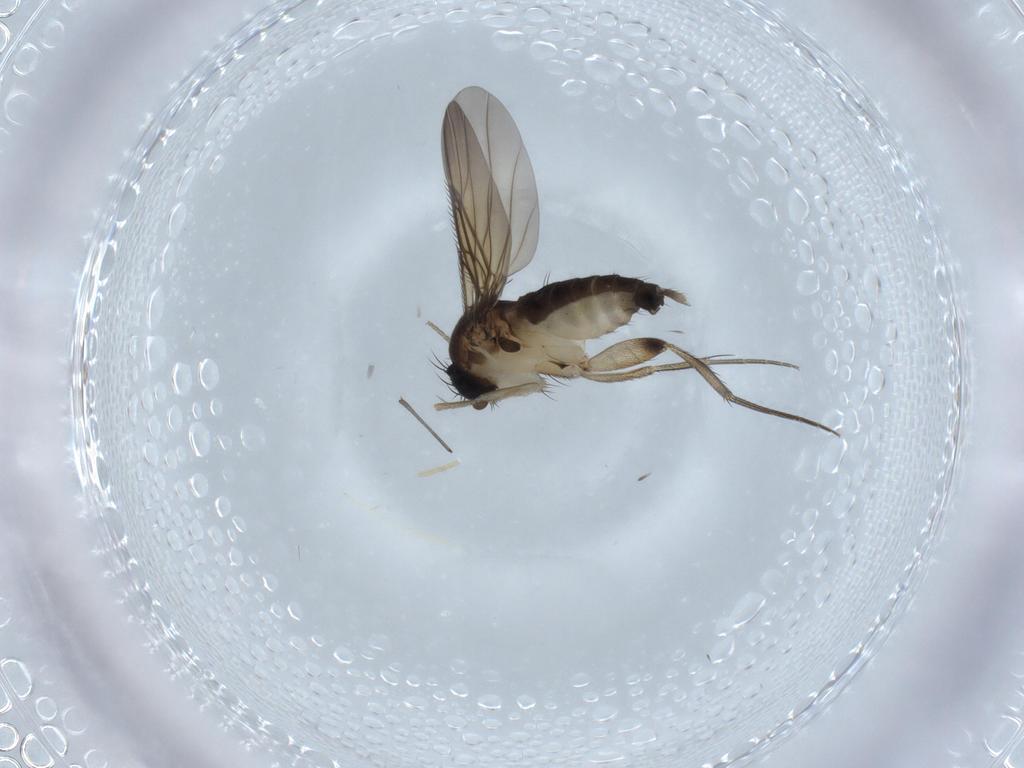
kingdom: Animalia
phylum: Arthropoda
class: Insecta
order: Diptera
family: Phoridae
